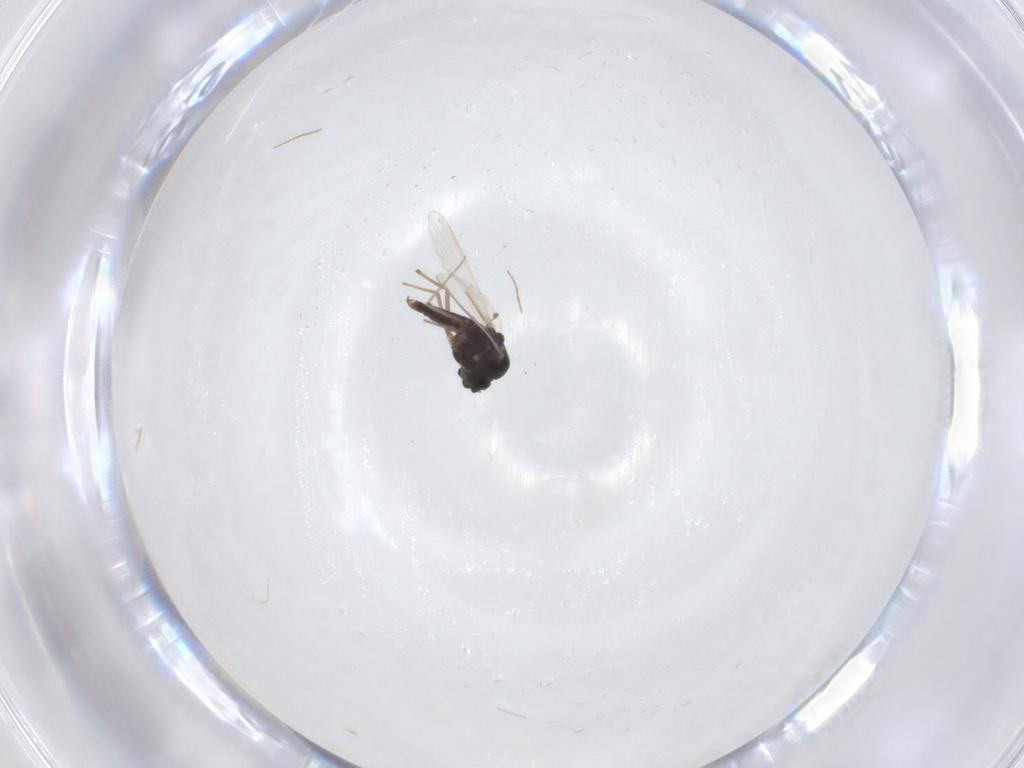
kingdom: Animalia
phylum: Arthropoda
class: Insecta
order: Diptera
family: Chironomidae
